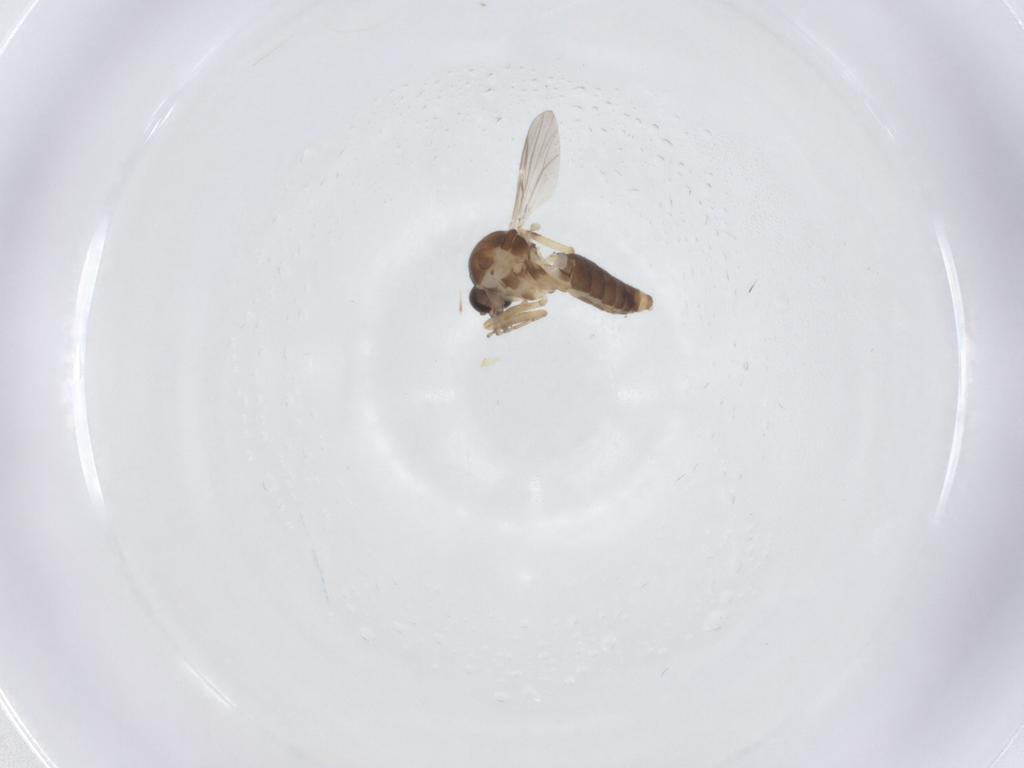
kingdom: Animalia
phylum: Arthropoda
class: Insecta
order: Diptera
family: Ceratopogonidae
